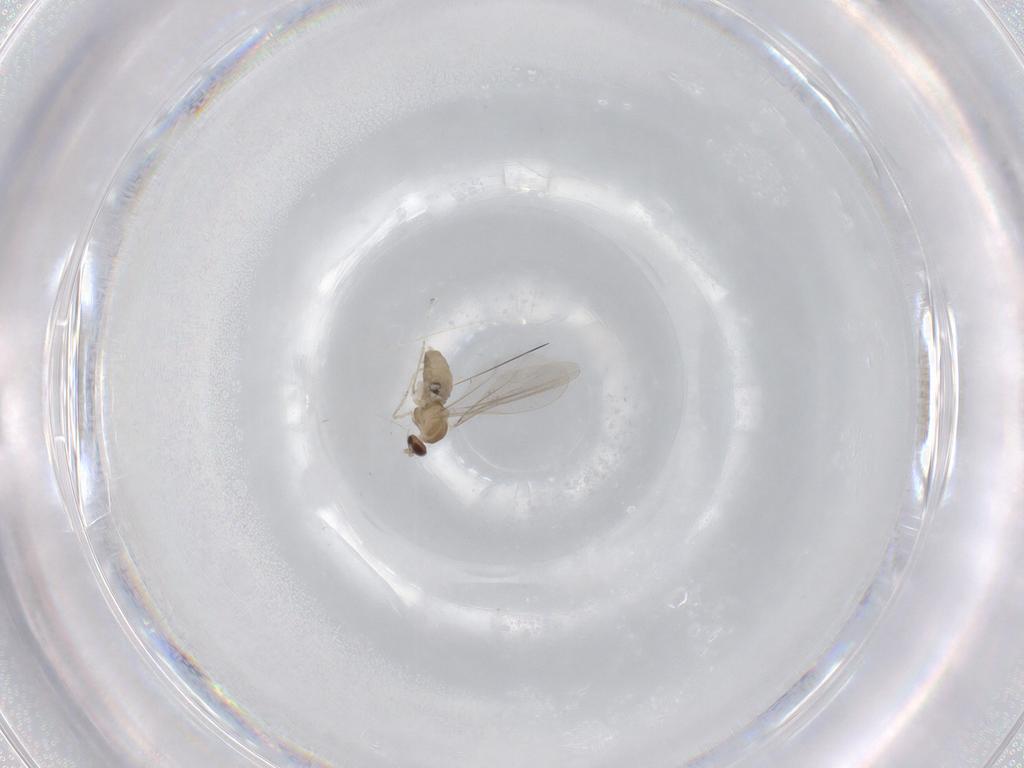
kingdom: Animalia
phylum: Arthropoda
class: Insecta
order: Diptera
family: Cecidomyiidae
